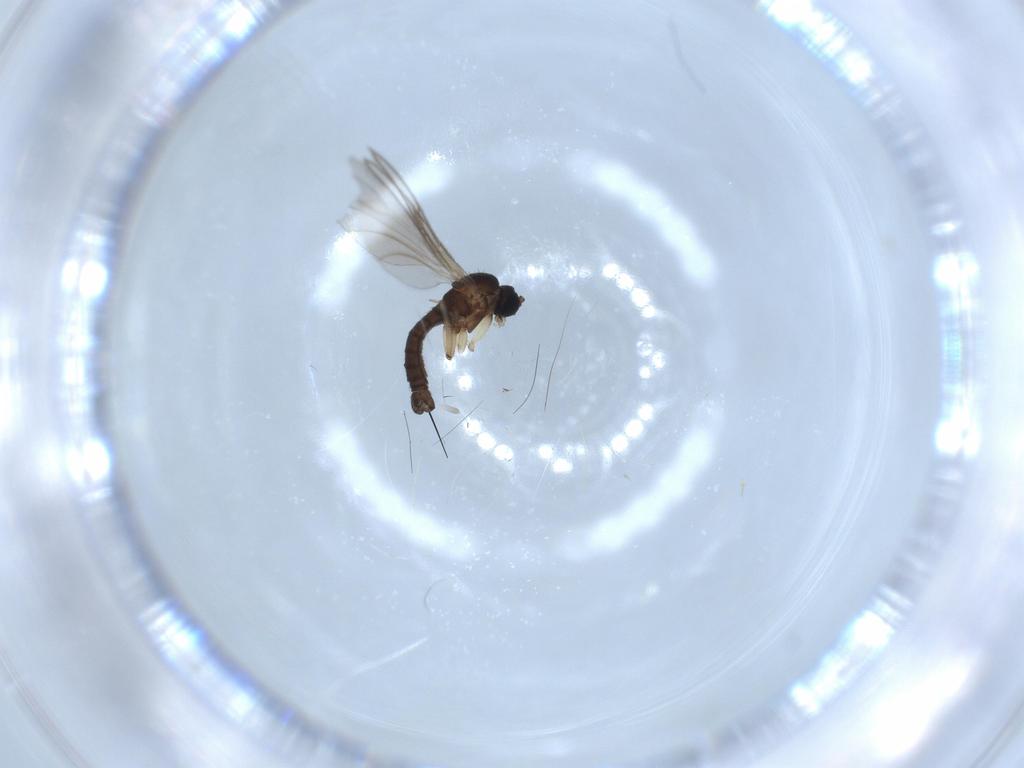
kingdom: Animalia
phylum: Arthropoda
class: Insecta
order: Diptera
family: Sciaridae
